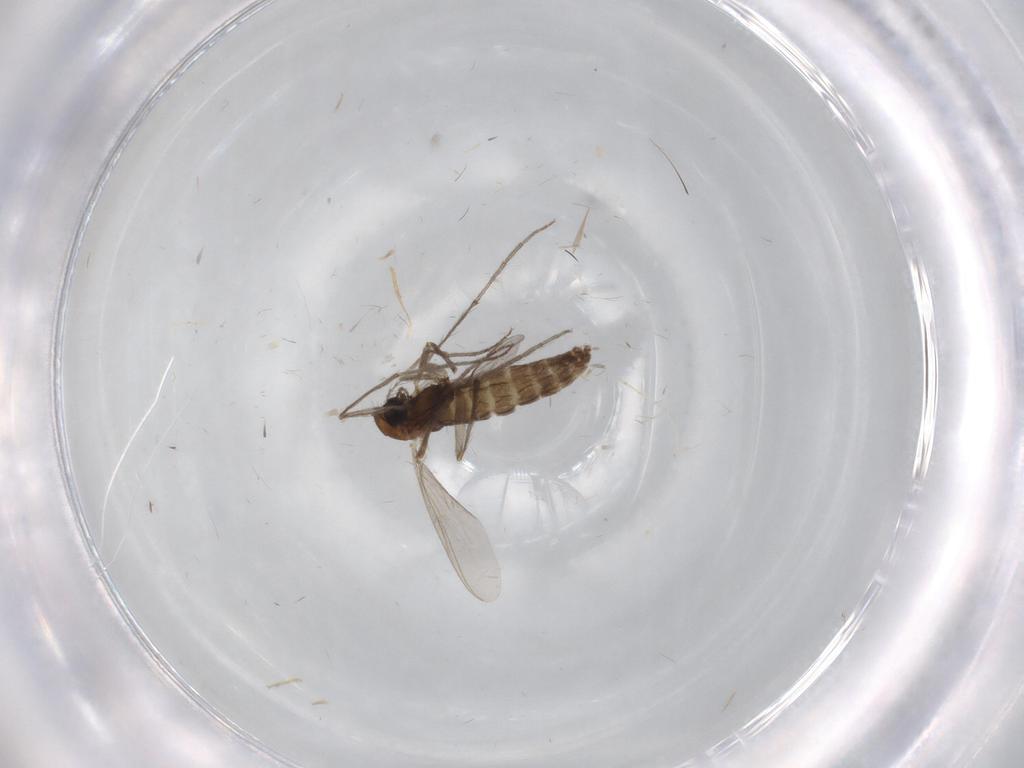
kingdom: Animalia
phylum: Arthropoda
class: Insecta
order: Diptera
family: Chironomidae
